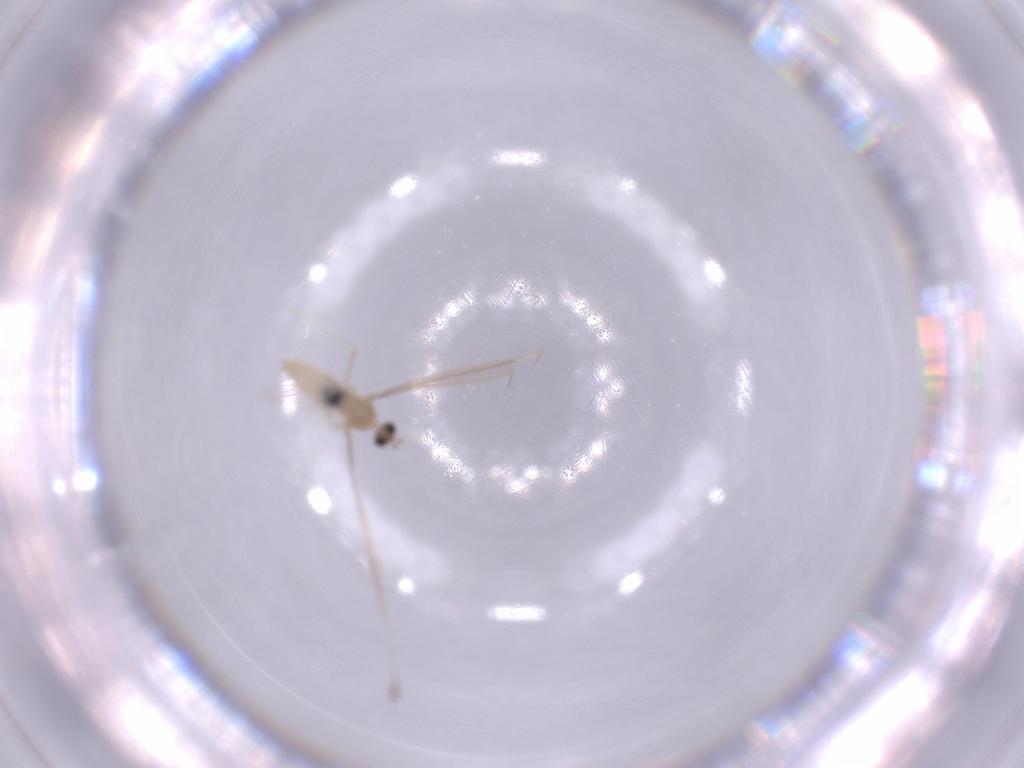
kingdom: Animalia
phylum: Arthropoda
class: Insecta
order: Diptera
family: Cecidomyiidae
